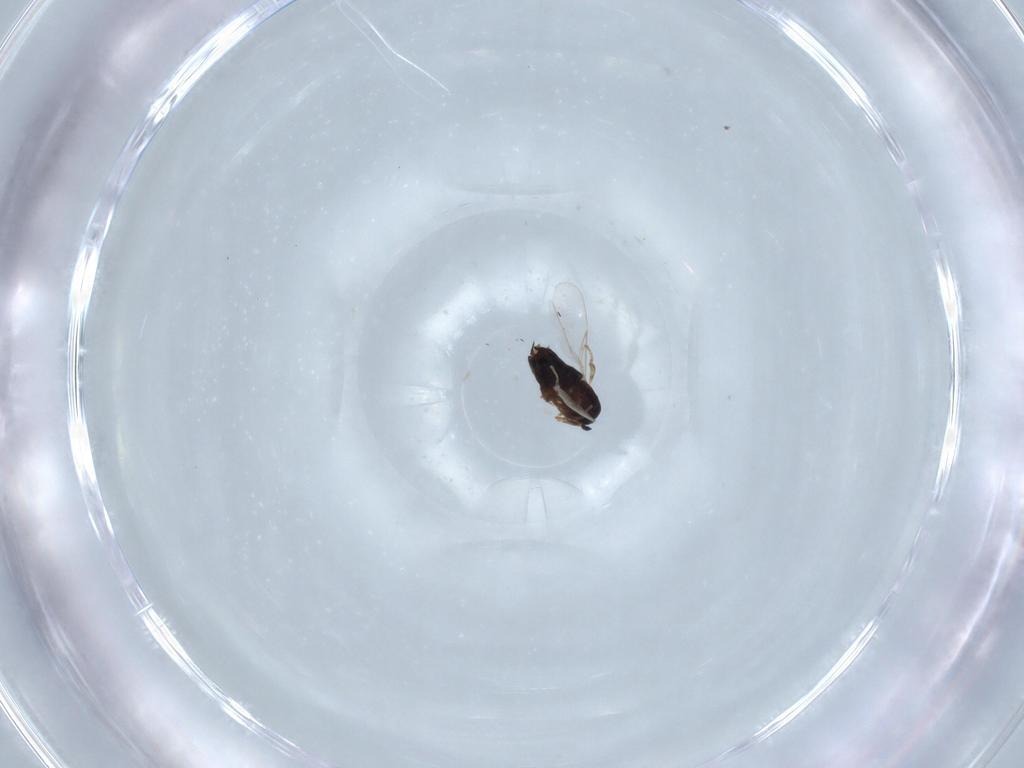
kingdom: Animalia
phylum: Arthropoda
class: Insecta
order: Diptera
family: Scatopsidae
